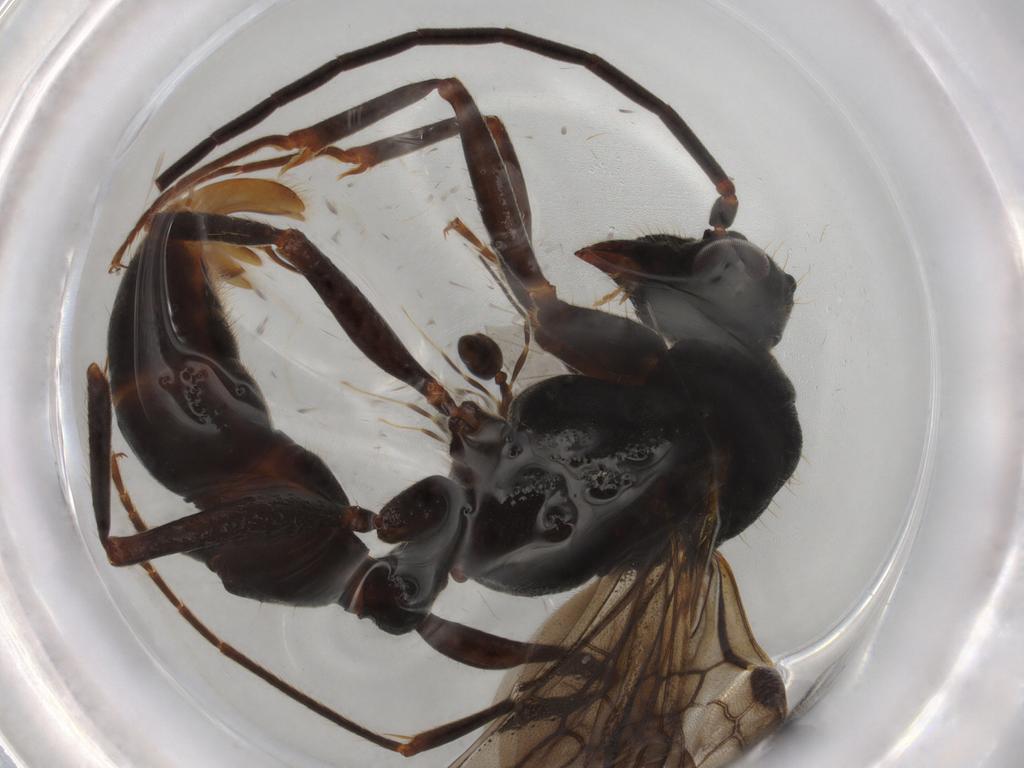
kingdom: Animalia
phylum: Arthropoda
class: Insecta
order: Hymenoptera
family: Formicidae
